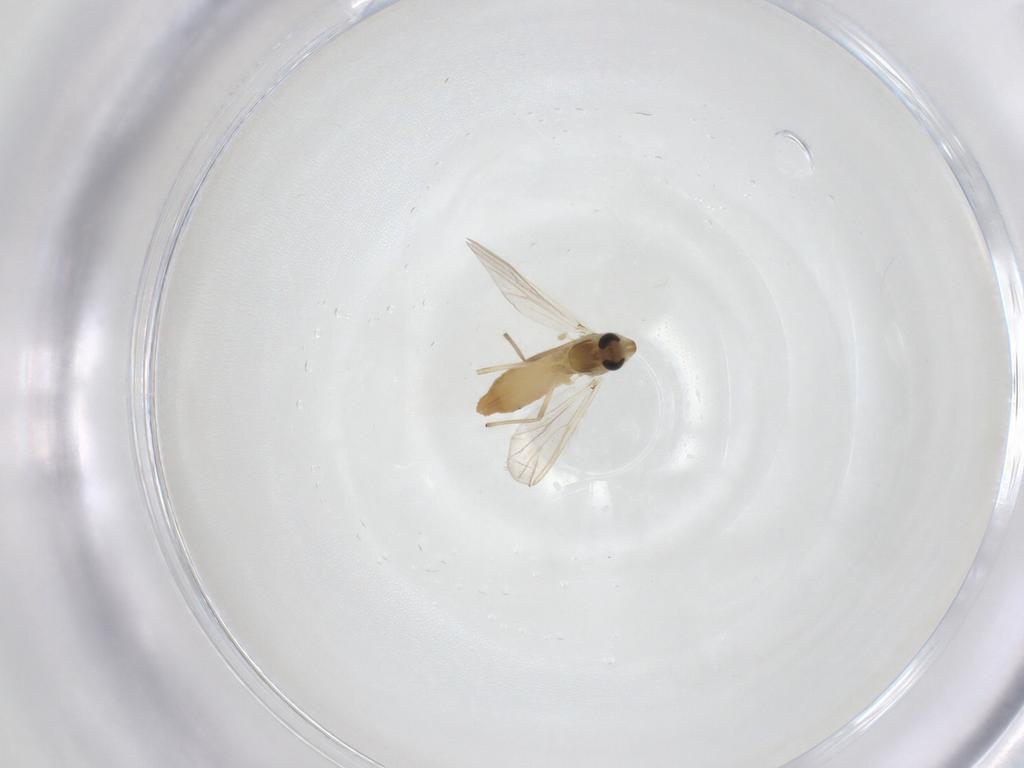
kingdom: Animalia
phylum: Arthropoda
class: Insecta
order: Diptera
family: Chironomidae
